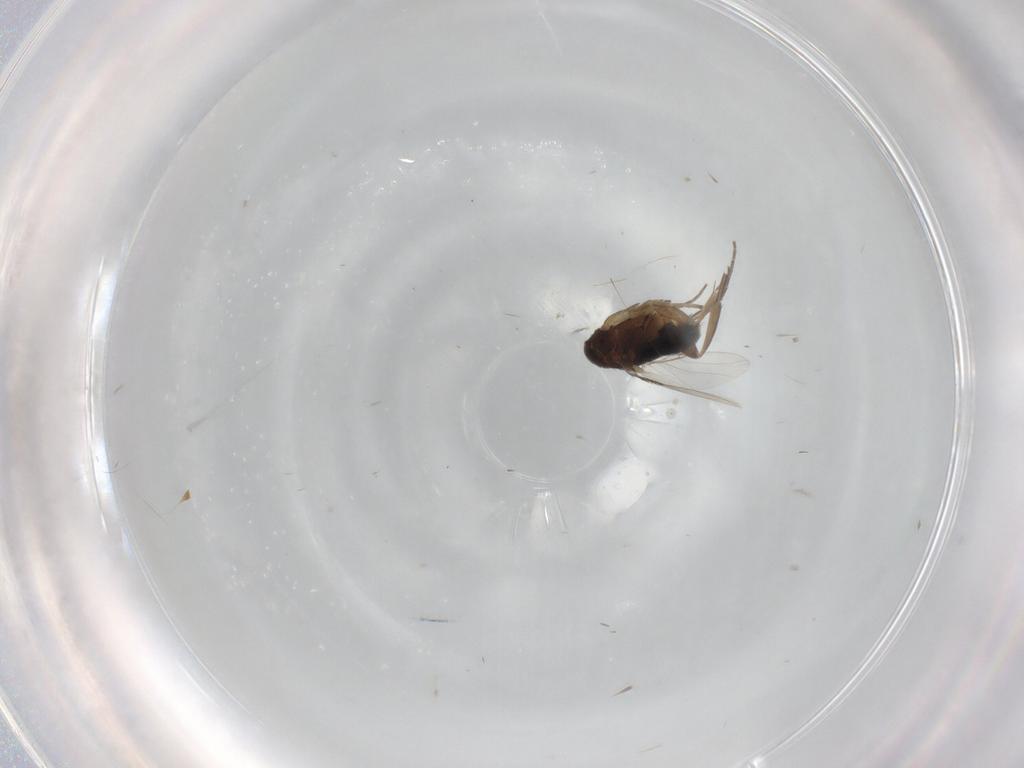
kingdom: Animalia
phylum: Arthropoda
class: Insecta
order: Diptera
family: Phoridae
